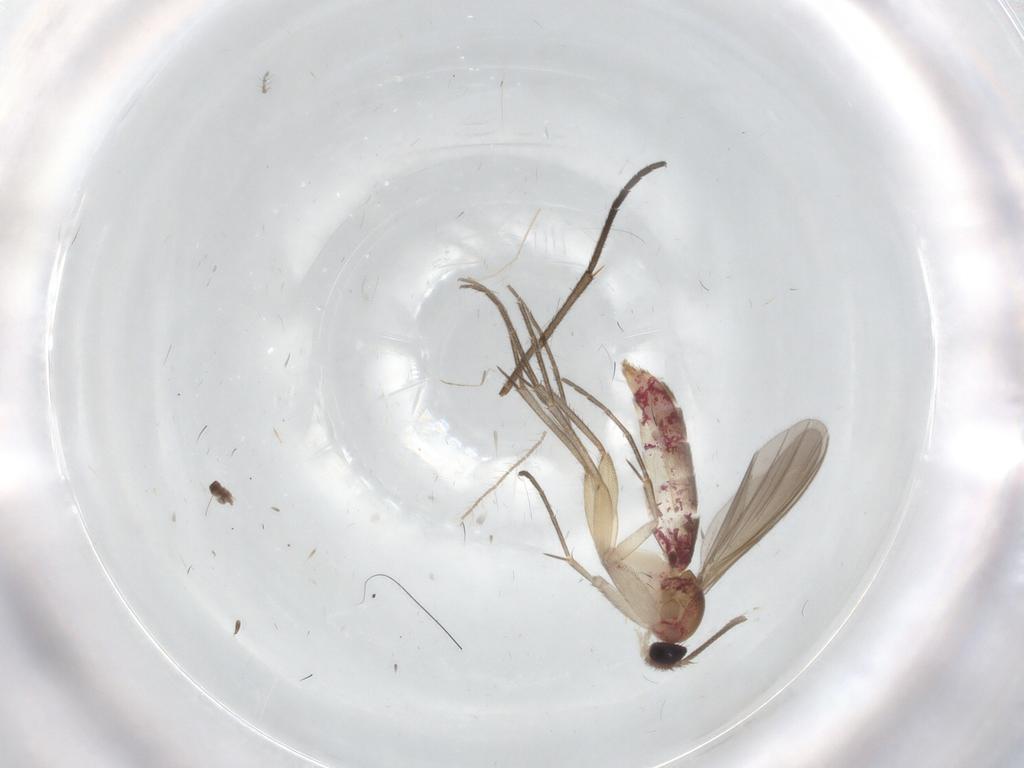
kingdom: Animalia
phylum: Arthropoda
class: Insecta
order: Diptera
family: Mycetophilidae
